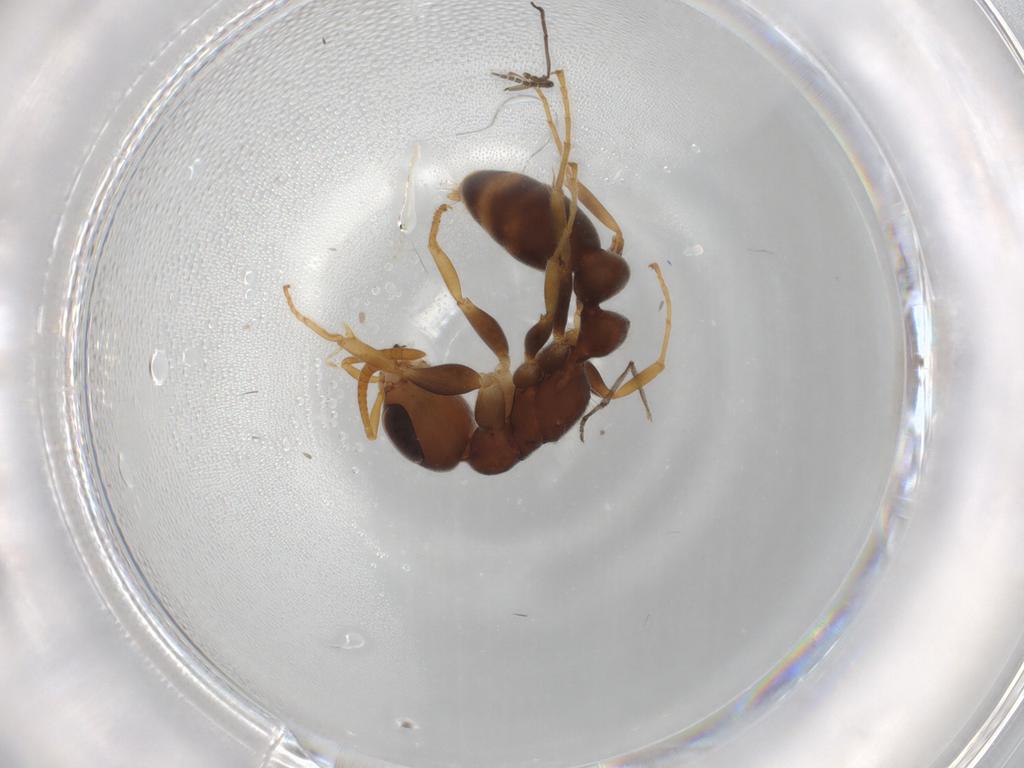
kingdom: Animalia
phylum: Arthropoda
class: Insecta
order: Hymenoptera
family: Formicidae
